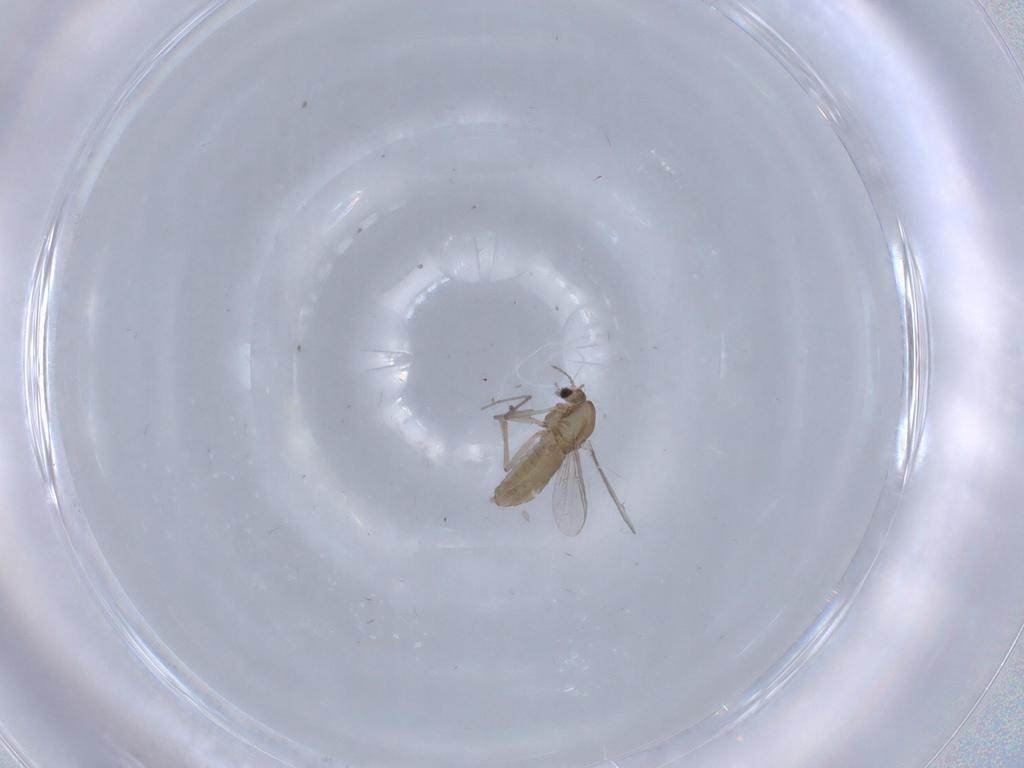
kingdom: Animalia
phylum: Arthropoda
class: Insecta
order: Diptera
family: Chironomidae
